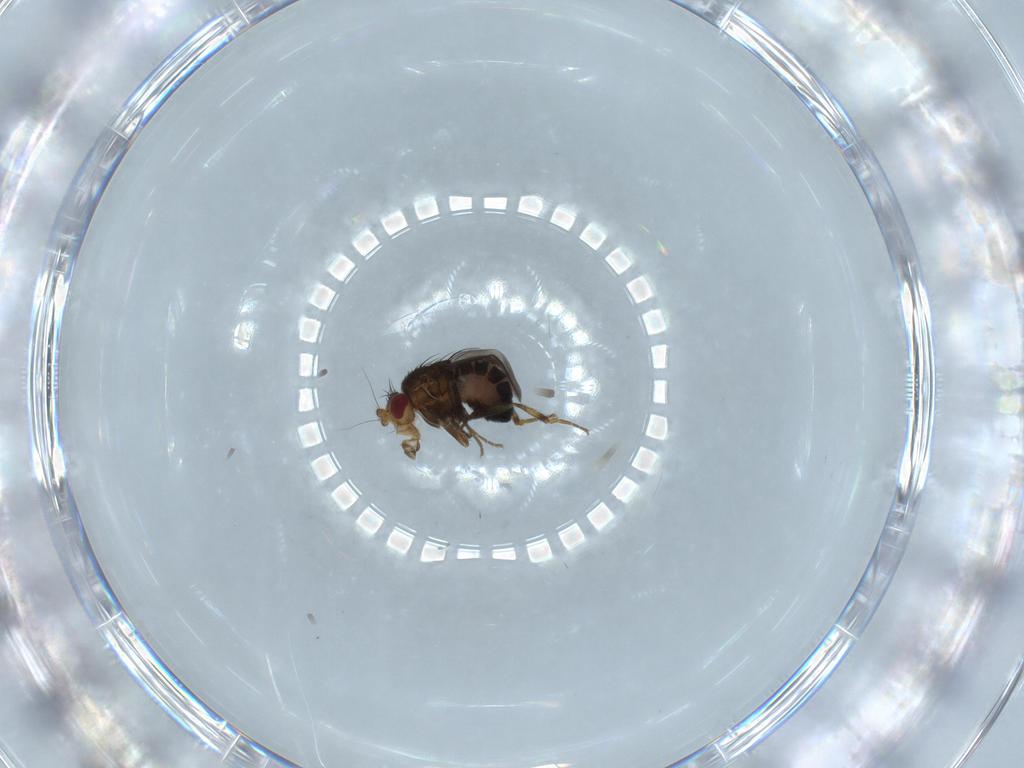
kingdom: Animalia
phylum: Arthropoda
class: Insecta
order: Diptera
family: Sphaeroceridae
